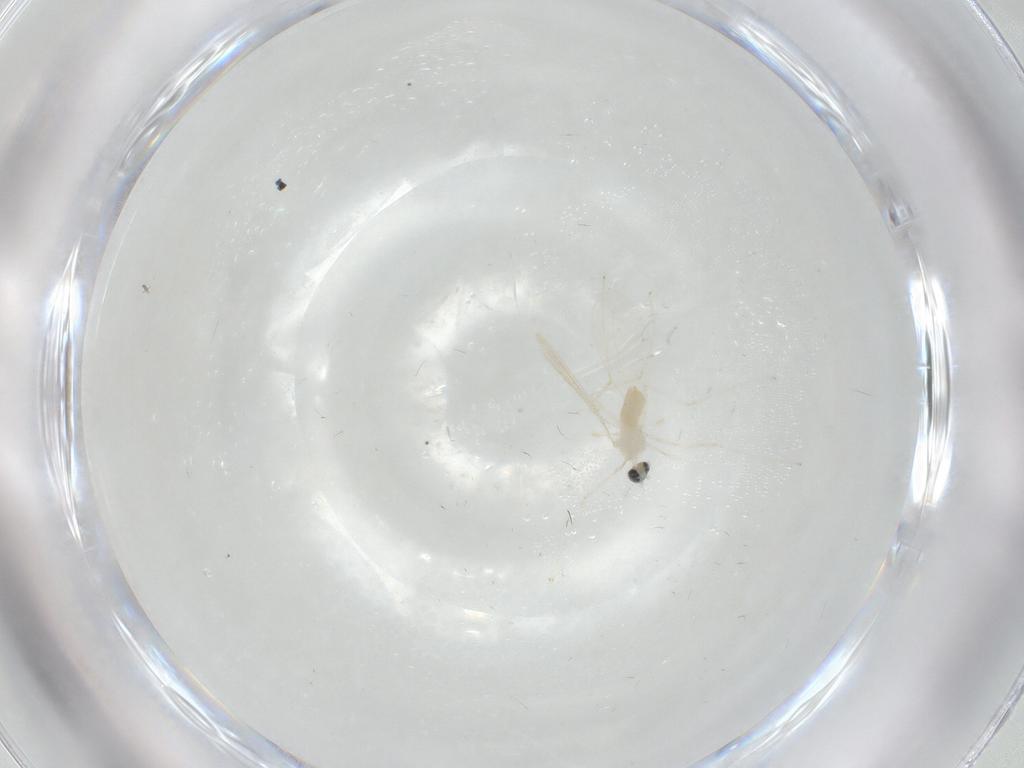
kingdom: Animalia
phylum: Arthropoda
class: Insecta
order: Diptera
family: Cecidomyiidae
